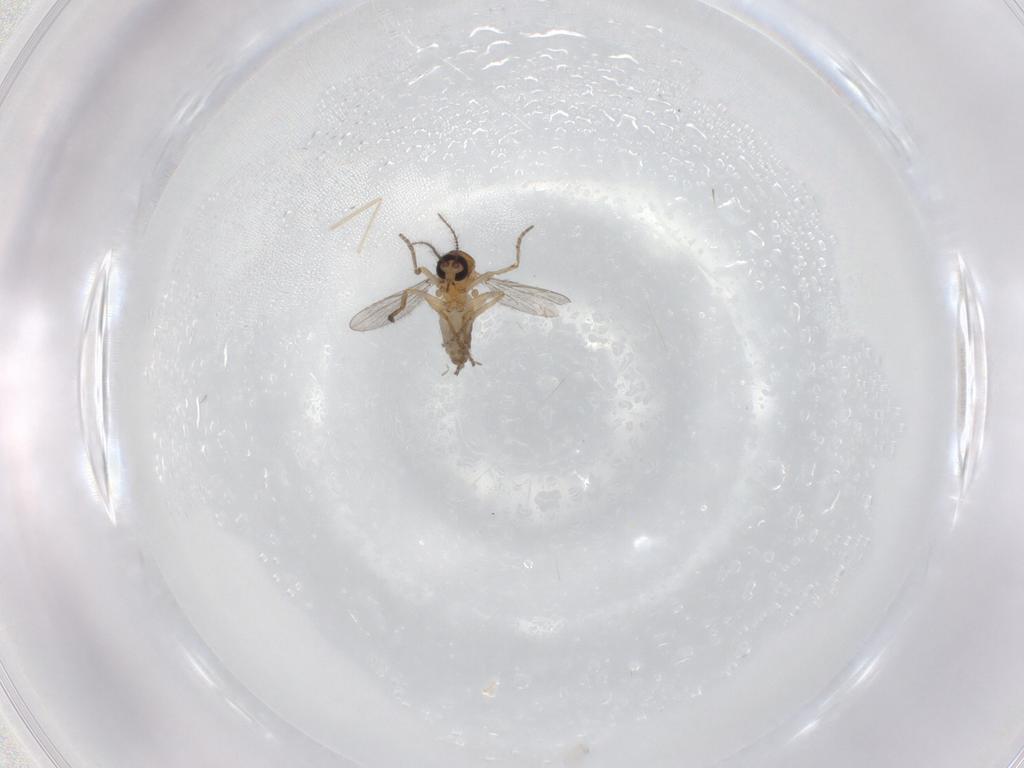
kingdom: Animalia
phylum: Arthropoda
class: Insecta
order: Diptera
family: Cecidomyiidae
